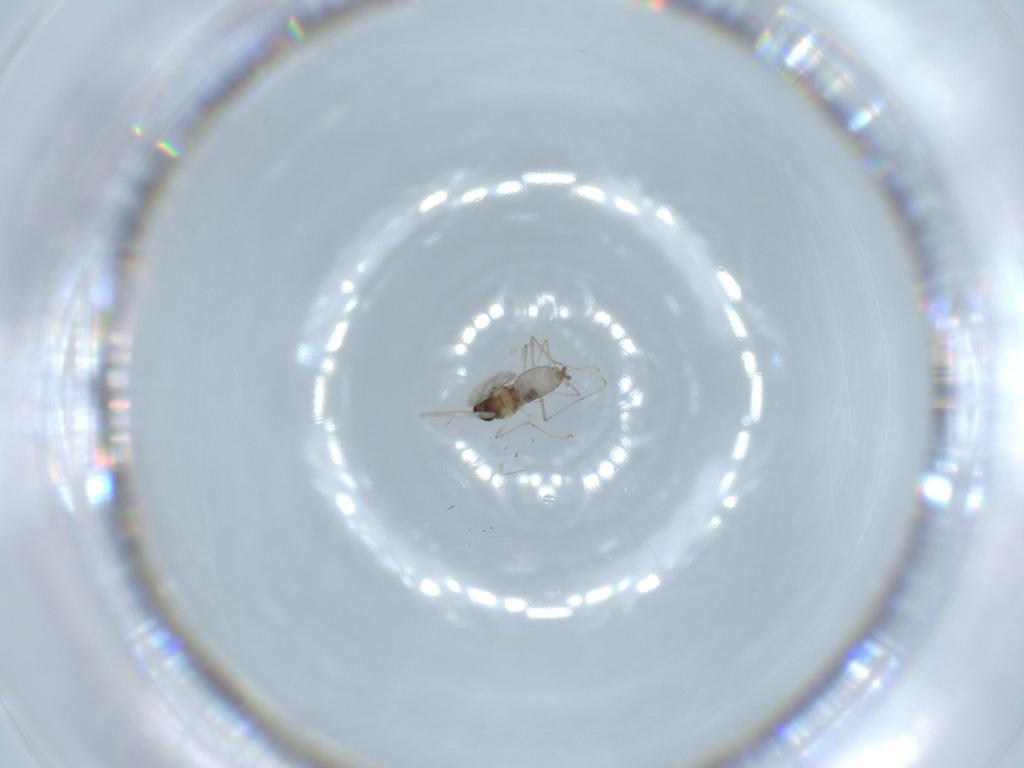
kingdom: Animalia
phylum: Arthropoda
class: Insecta
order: Diptera
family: Cecidomyiidae
